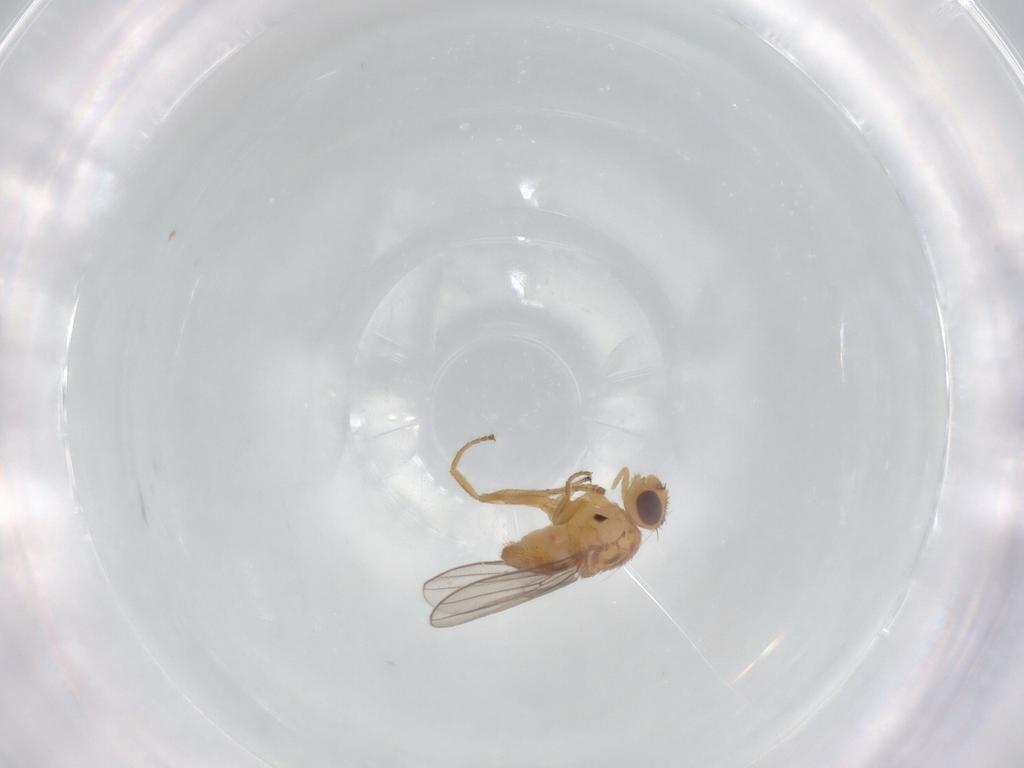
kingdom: Animalia
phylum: Arthropoda
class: Insecta
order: Diptera
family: Chloropidae
